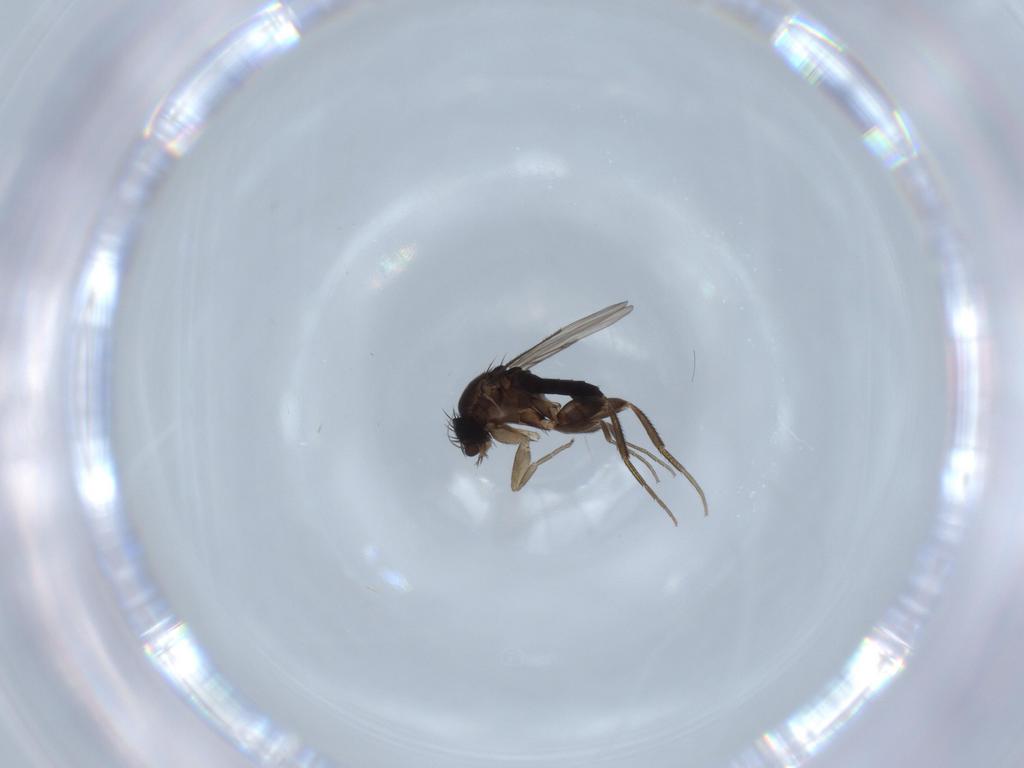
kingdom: Animalia
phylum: Arthropoda
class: Insecta
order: Diptera
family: Phoridae
